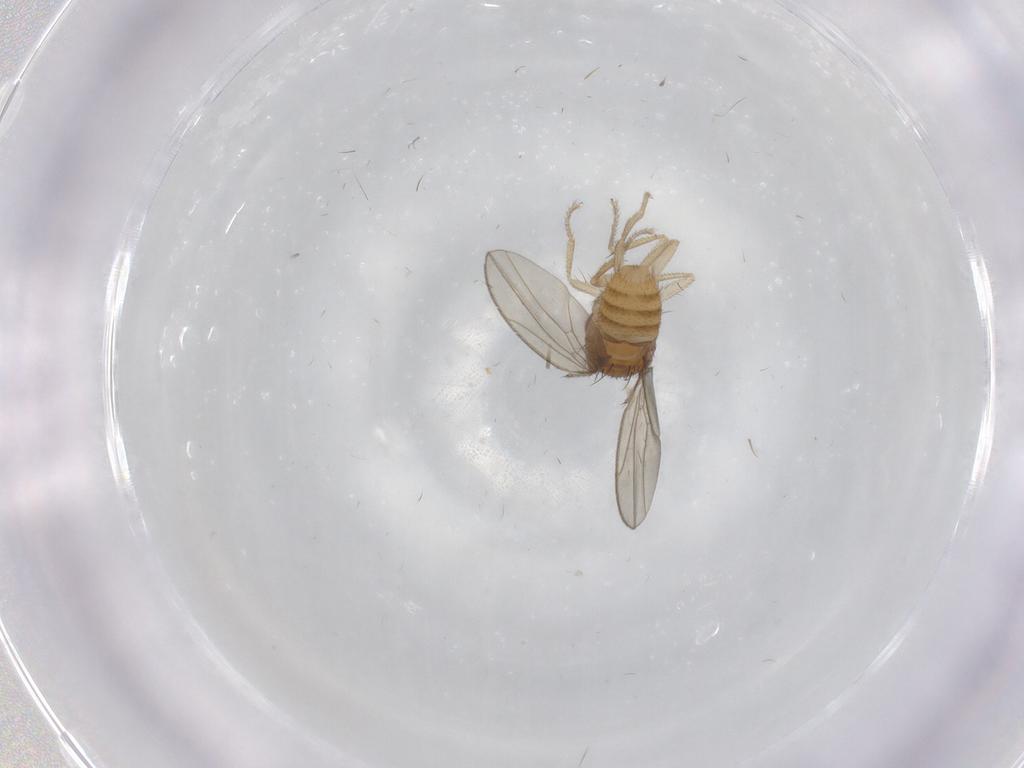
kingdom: Animalia
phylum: Arthropoda
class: Insecta
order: Diptera
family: Cecidomyiidae
